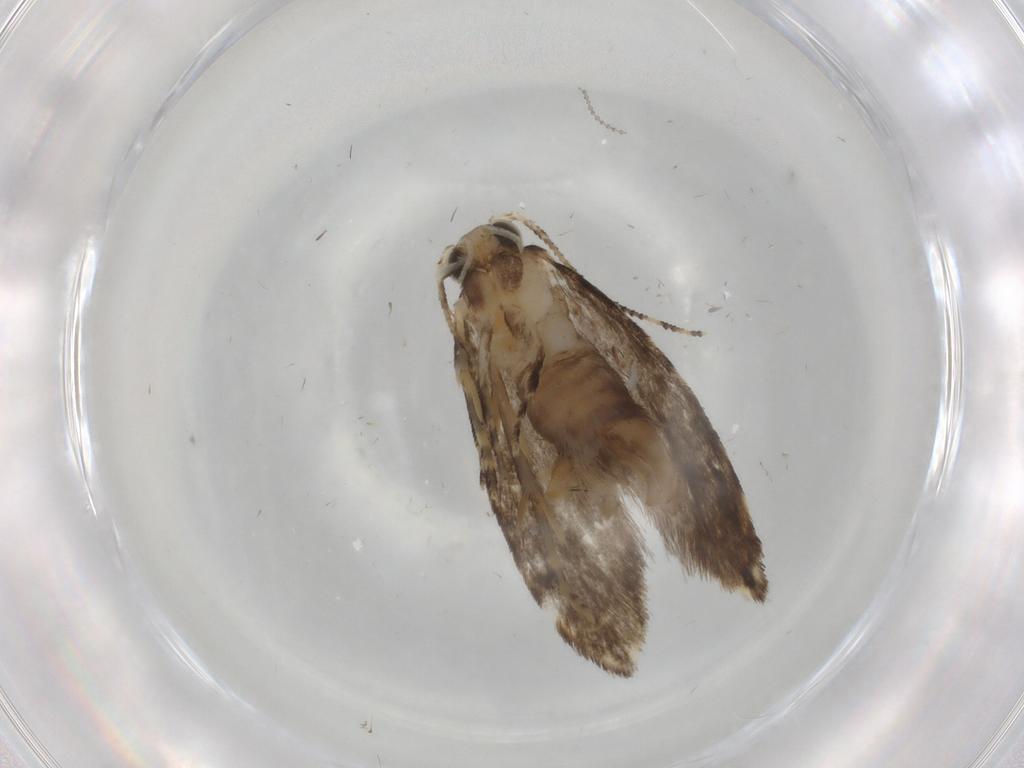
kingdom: Animalia
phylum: Arthropoda
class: Insecta
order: Lepidoptera
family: Tineidae
